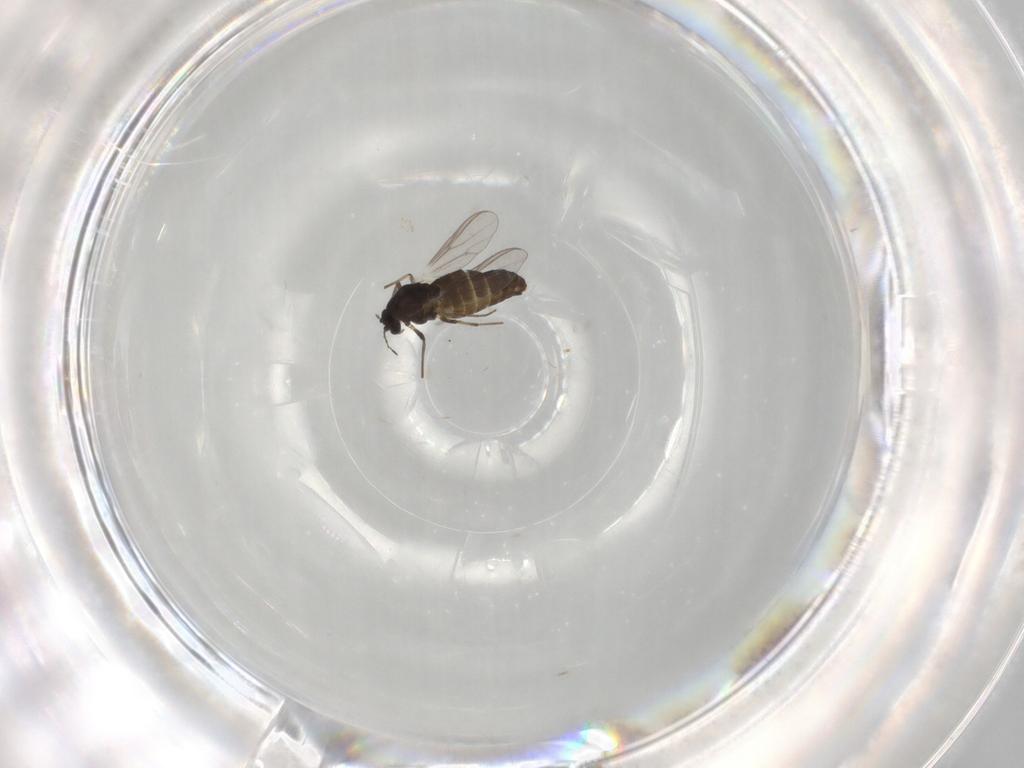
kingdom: Animalia
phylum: Arthropoda
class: Insecta
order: Diptera
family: Chironomidae
